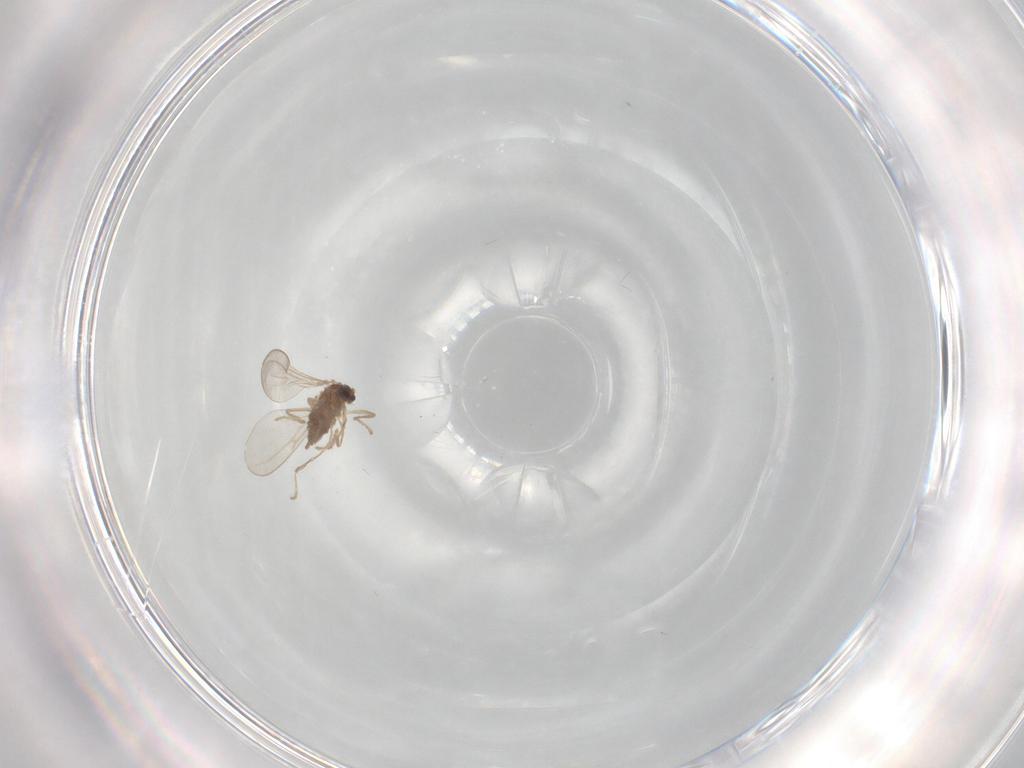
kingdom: Animalia
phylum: Arthropoda
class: Insecta
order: Diptera
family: Cecidomyiidae
